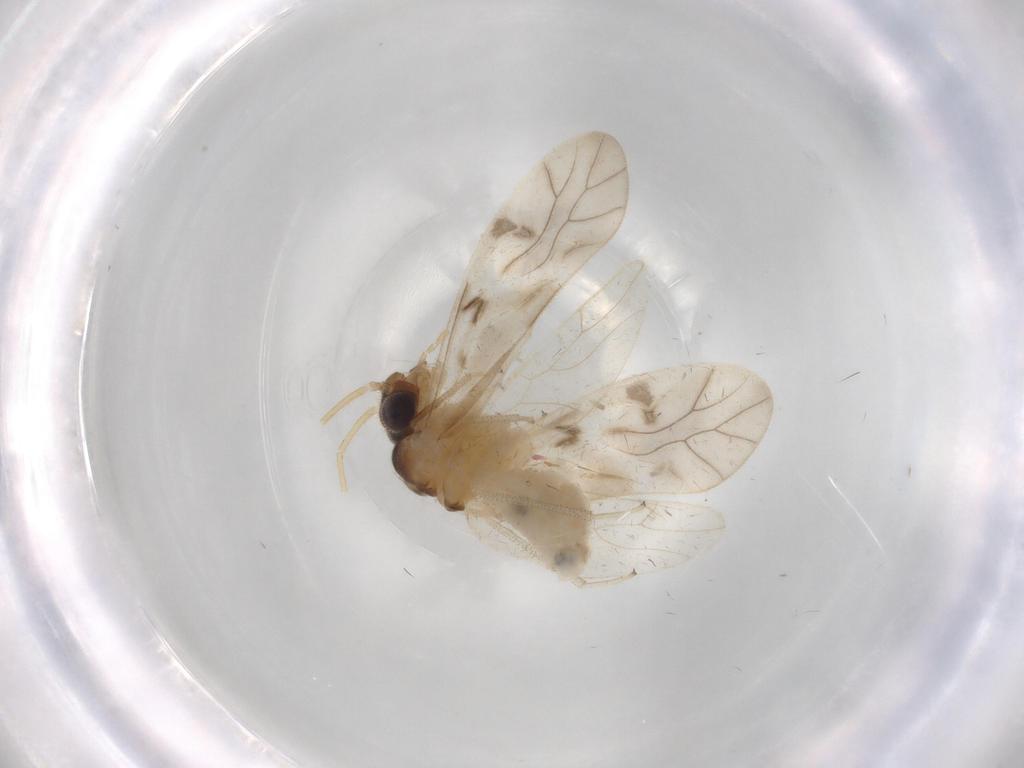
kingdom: Animalia
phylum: Arthropoda
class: Insecta
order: Psocodea
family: Caeciliusidae
